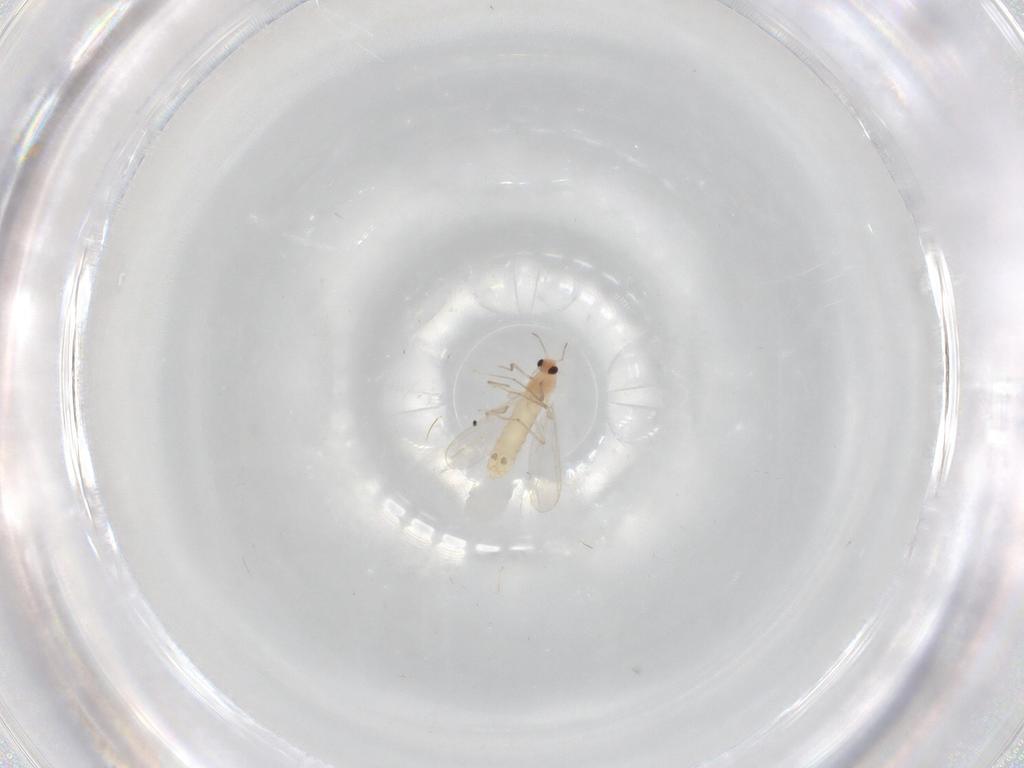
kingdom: Animalia
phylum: Arthropoda
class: Insecta
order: Diptera
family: Chironomidae
